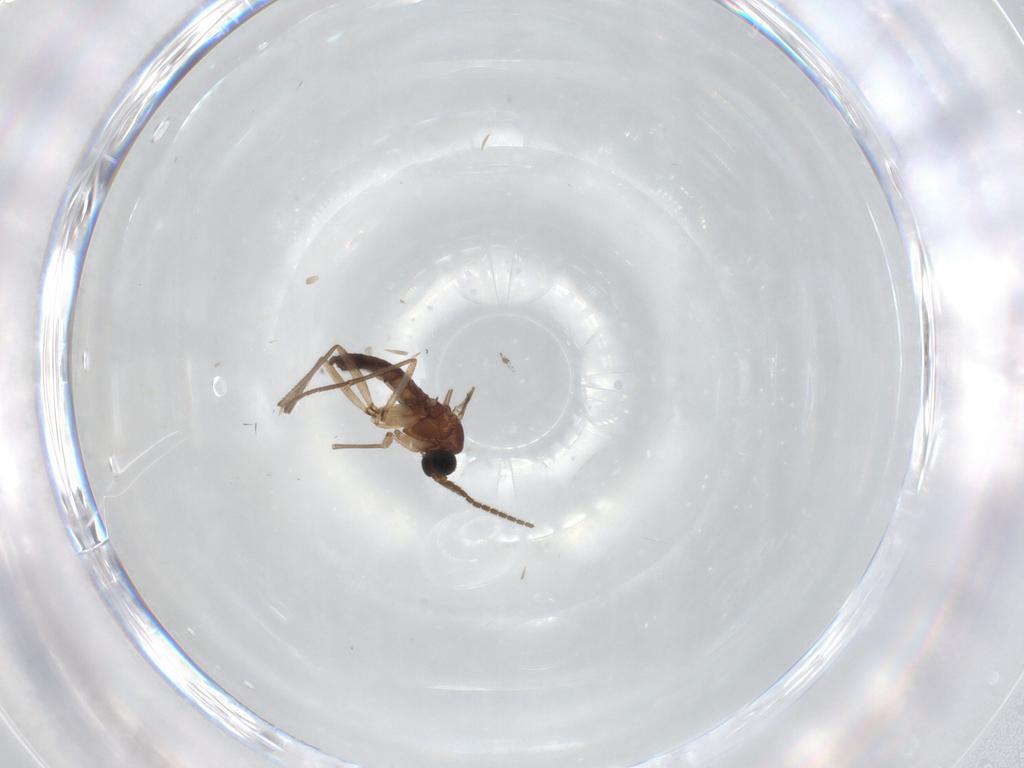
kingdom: Animalia
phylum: Arthropoda
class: Insecta
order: Diptera
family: Sciaridae
